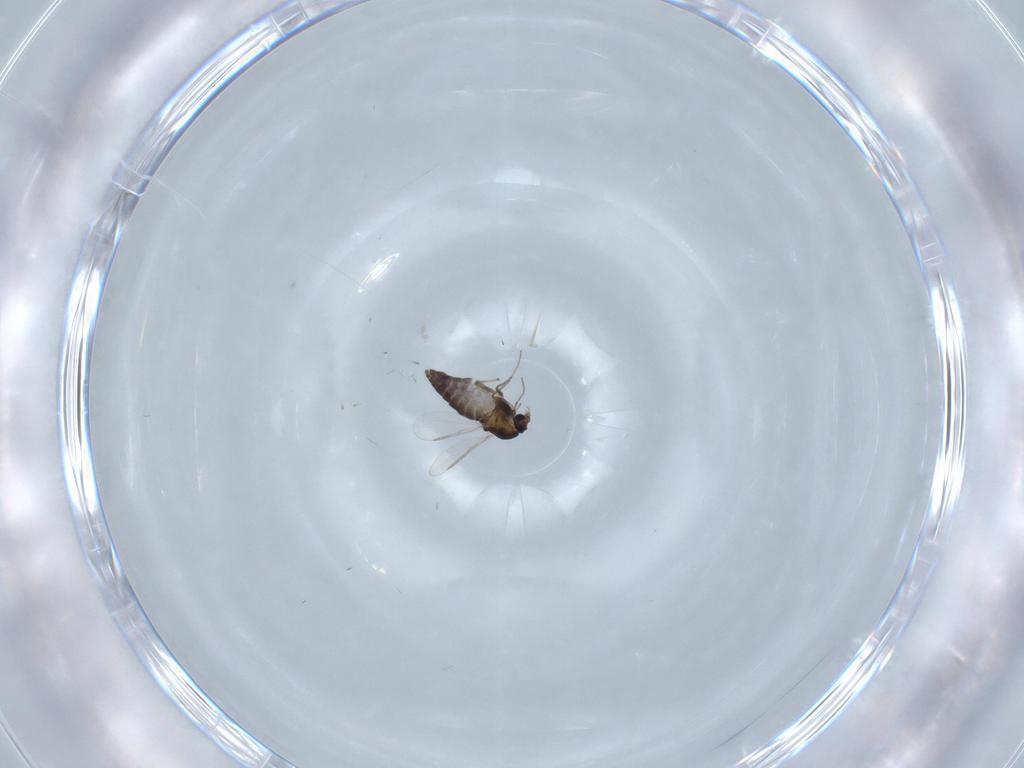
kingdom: Animalia
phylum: Arthropoda
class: Insecta
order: Diptera
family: Chironomidae
